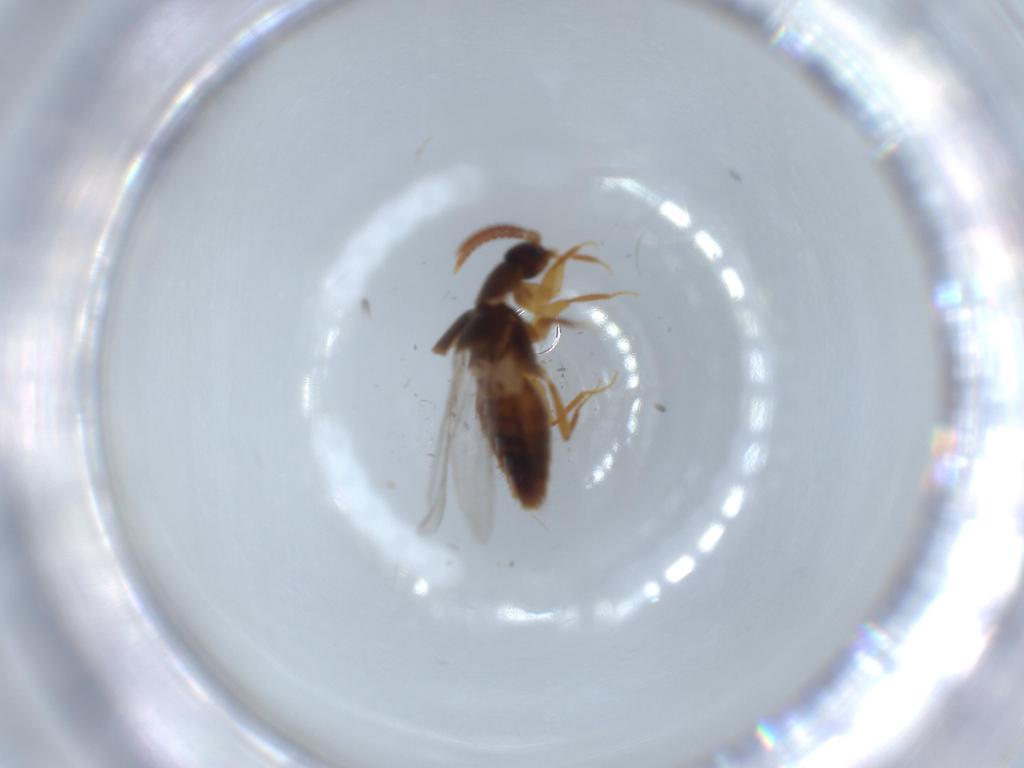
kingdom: Animalia
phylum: Arthropoda
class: Insecta
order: Coleoptera
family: Staphylinidae
